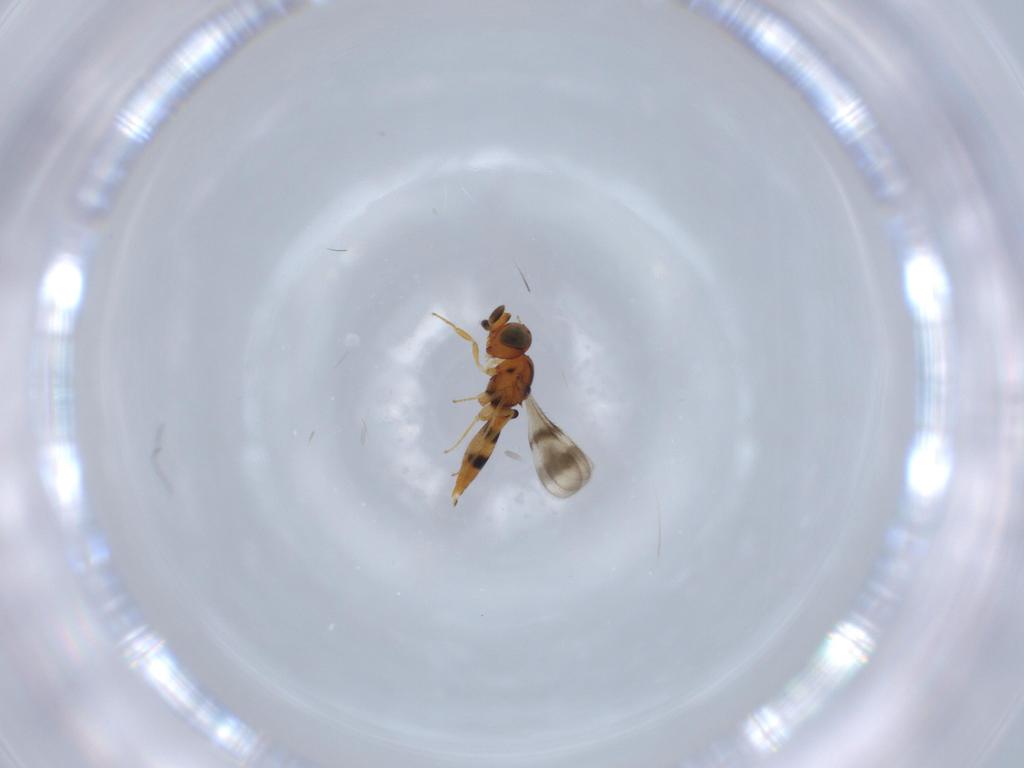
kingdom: Animalia
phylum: Arthropoda
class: Insecta
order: Hymenoptera
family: Scelionidae
